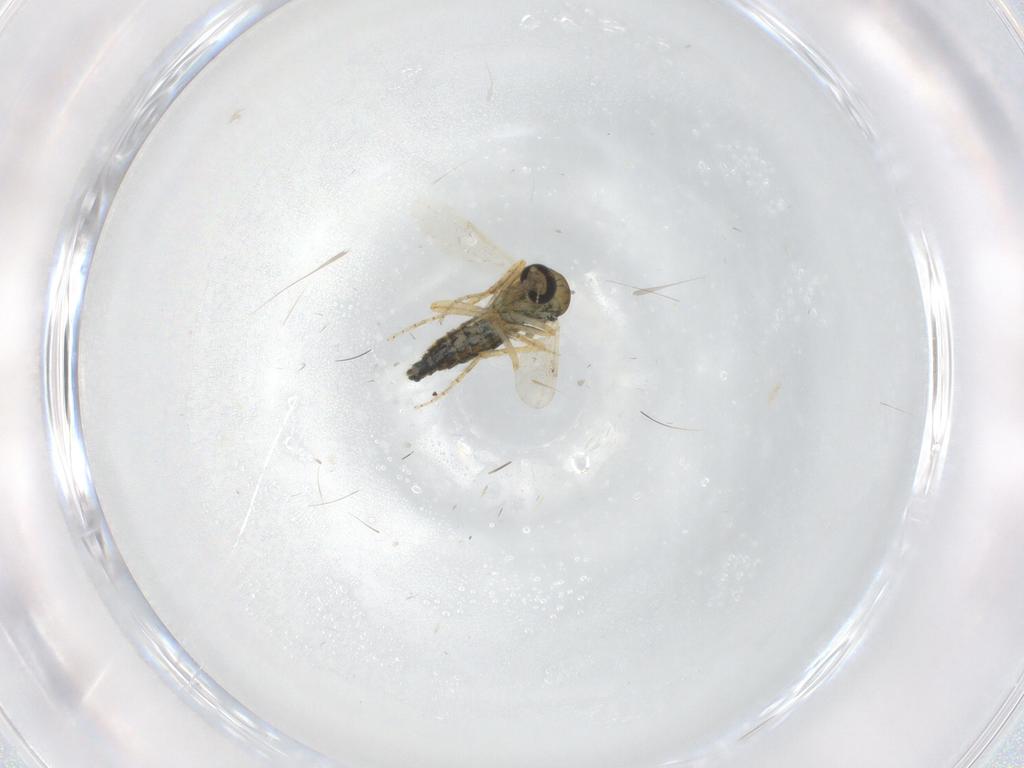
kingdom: Animalia
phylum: Arthropoda
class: Insecta
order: Diptera
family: Ceratopogonidae
